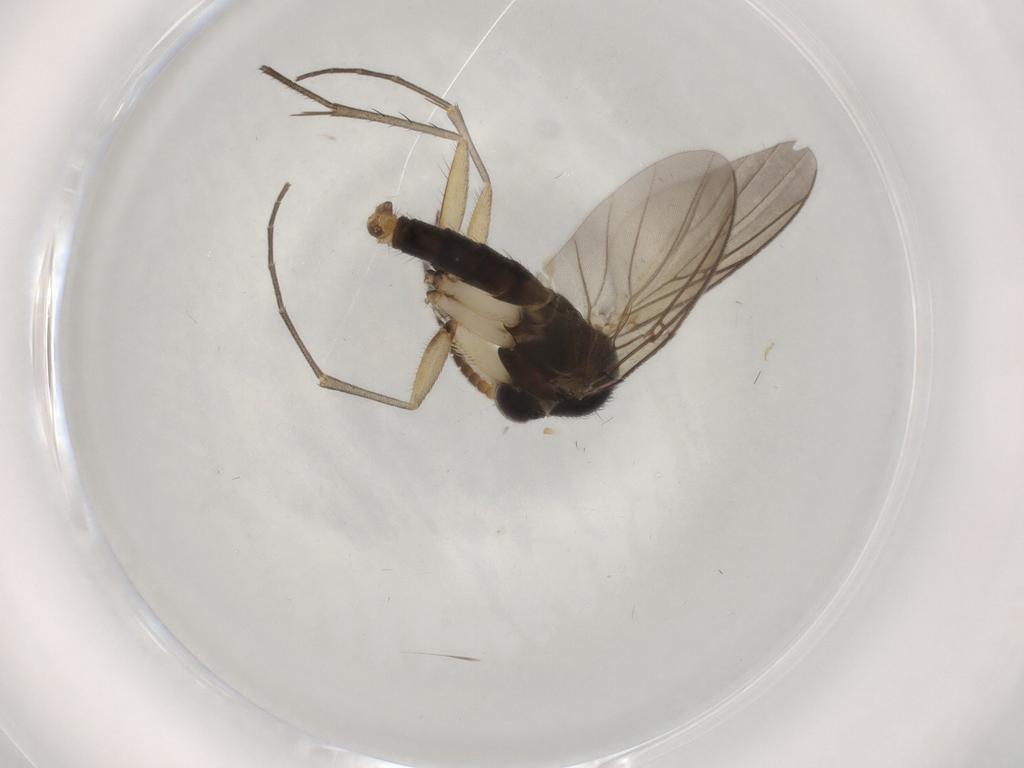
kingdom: Animalia
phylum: Arthropoda
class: Insecta
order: Diptera
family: Mycetophilidae
